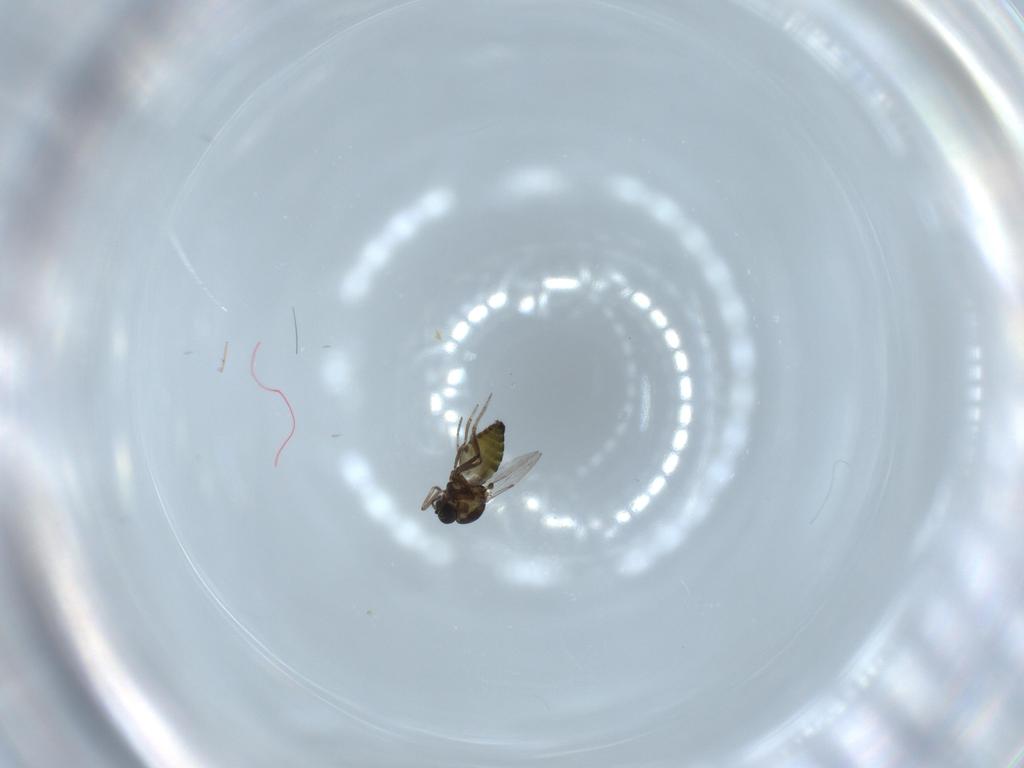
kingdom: Animalia
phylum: Arthropoda
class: Insecta
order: Diptera
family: Ceratopogonidae
